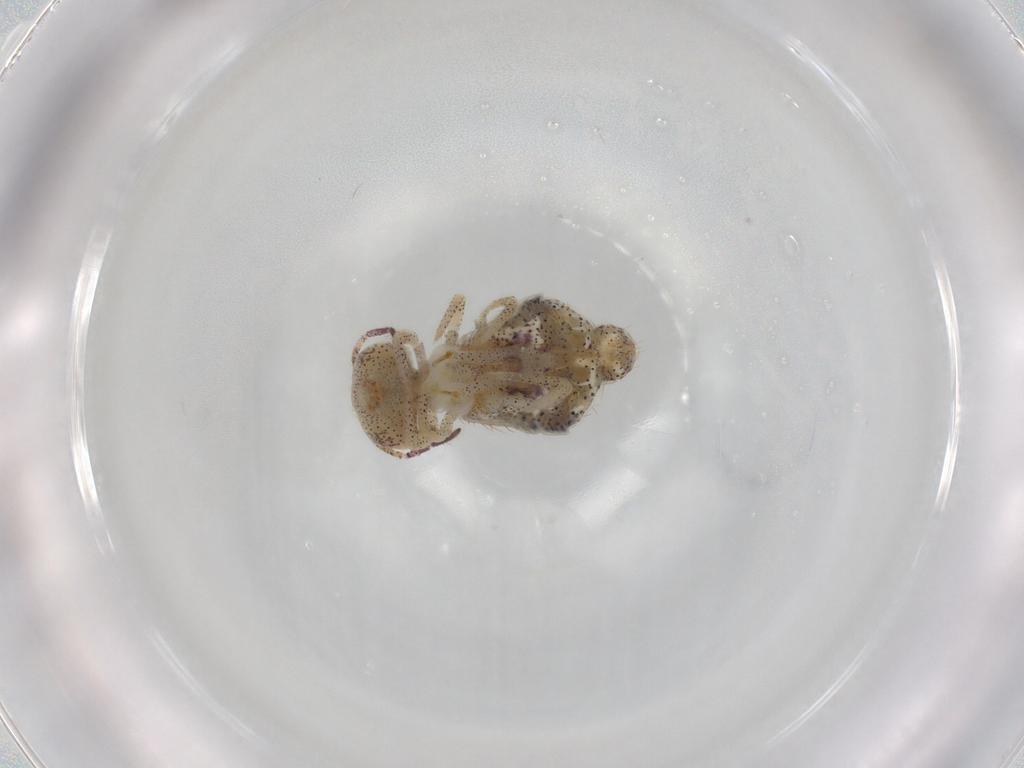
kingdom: Animalia
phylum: Arthropoda
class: Collembola
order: Symphypleona
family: Bourletiellidae
